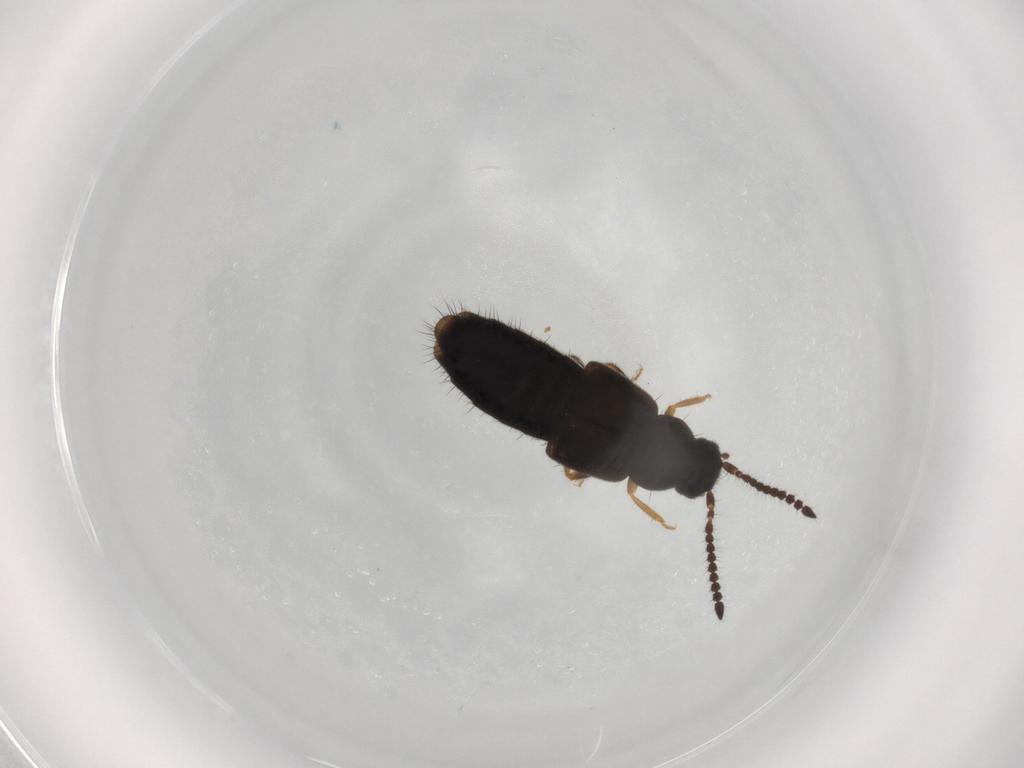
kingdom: Animalia
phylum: Arthropoda
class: Insecta
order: Coleoptera
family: Staphylinidae
